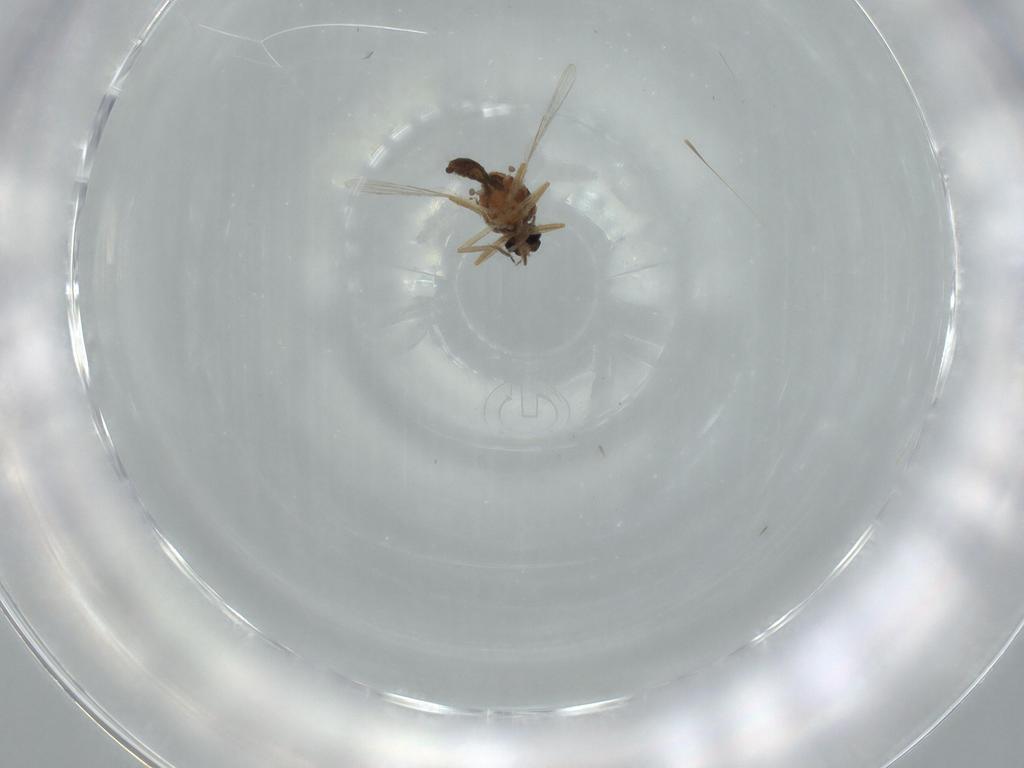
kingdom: Animalia
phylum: Arthropoda
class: Insecta
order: Diptera
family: Ceratopogonidae
